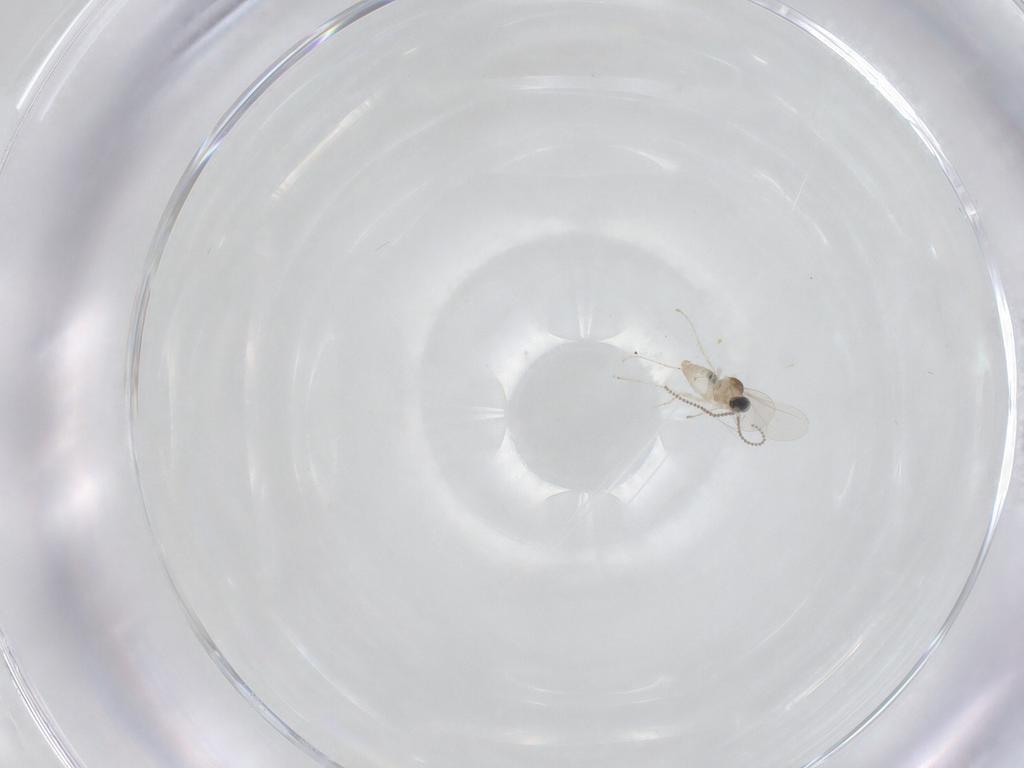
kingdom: Animalia
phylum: Arthropoda
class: Insecta
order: Diptera
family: Cecidomyiidae
